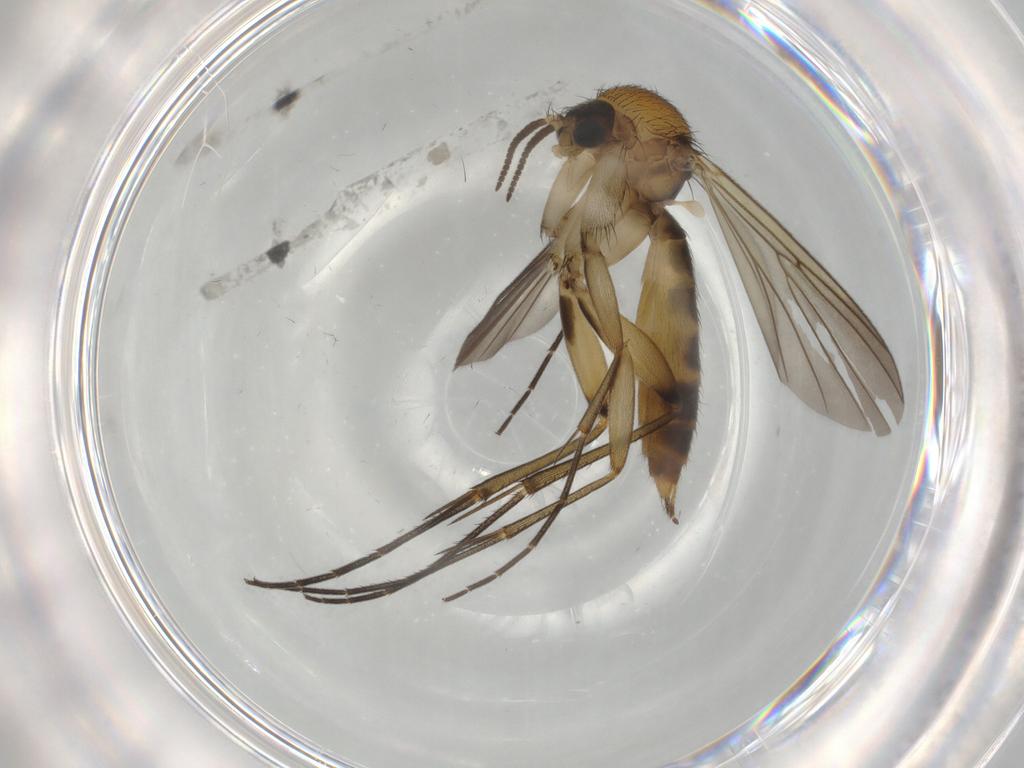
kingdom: Animalia
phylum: Arthropoda
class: Insecta
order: Diptera
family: Mycetophilidae
